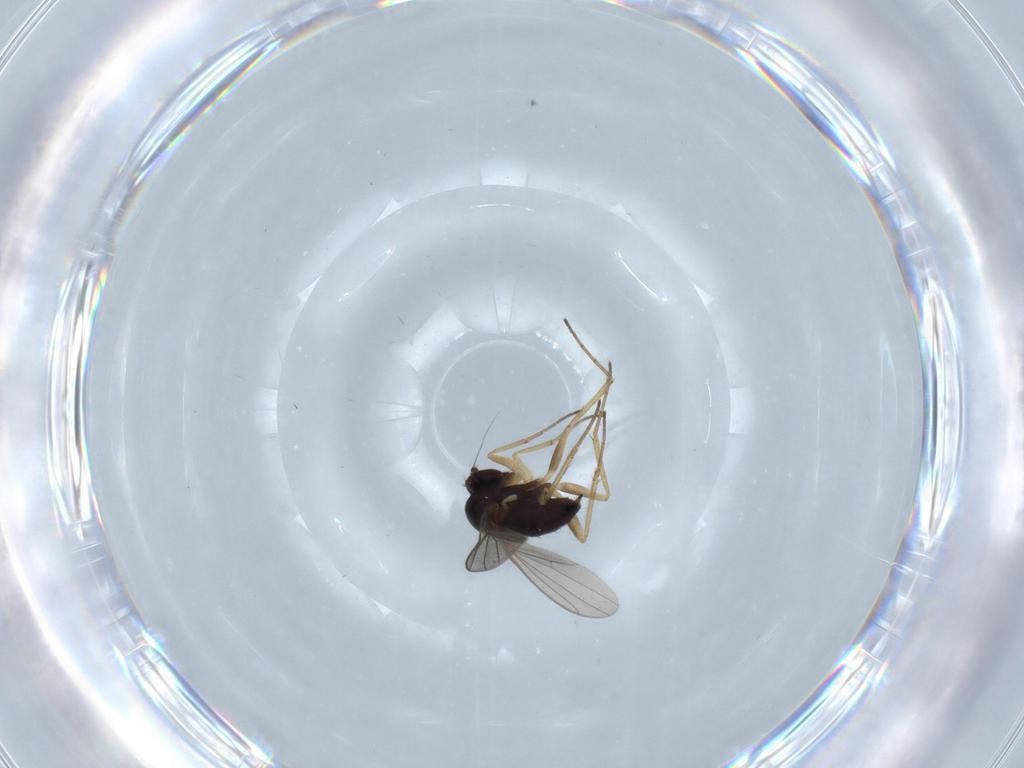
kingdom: Animalia
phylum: Arthropoda
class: Insecta
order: Diptera
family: Dolichopodidae
